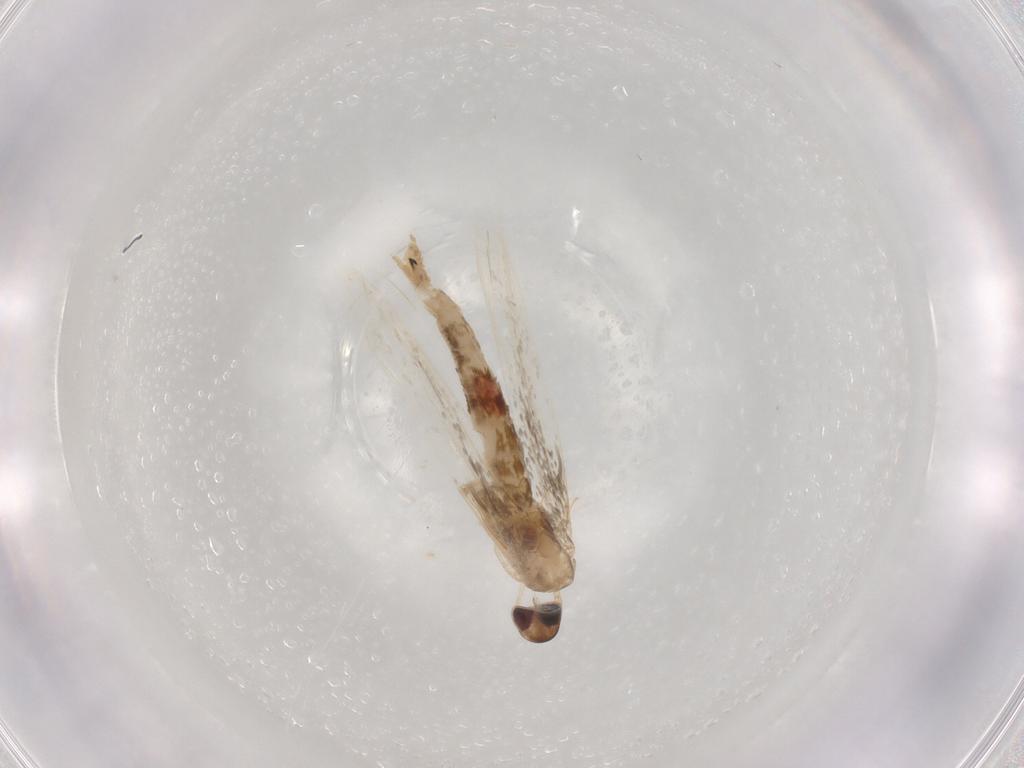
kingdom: Animalia
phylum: Arthropoda
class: Insecta
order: Lepidoptera
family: Cosmopterigidae
